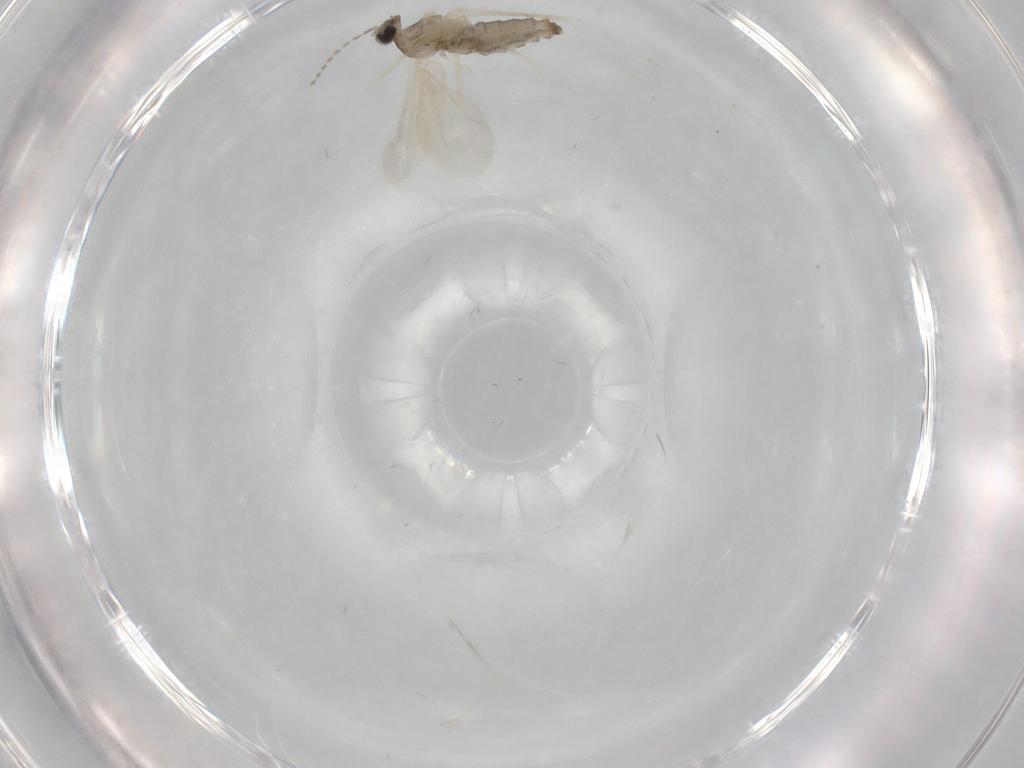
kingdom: Animalia
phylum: Arthropoda
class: Insecta
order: Diptera
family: Cecidomyiidae
